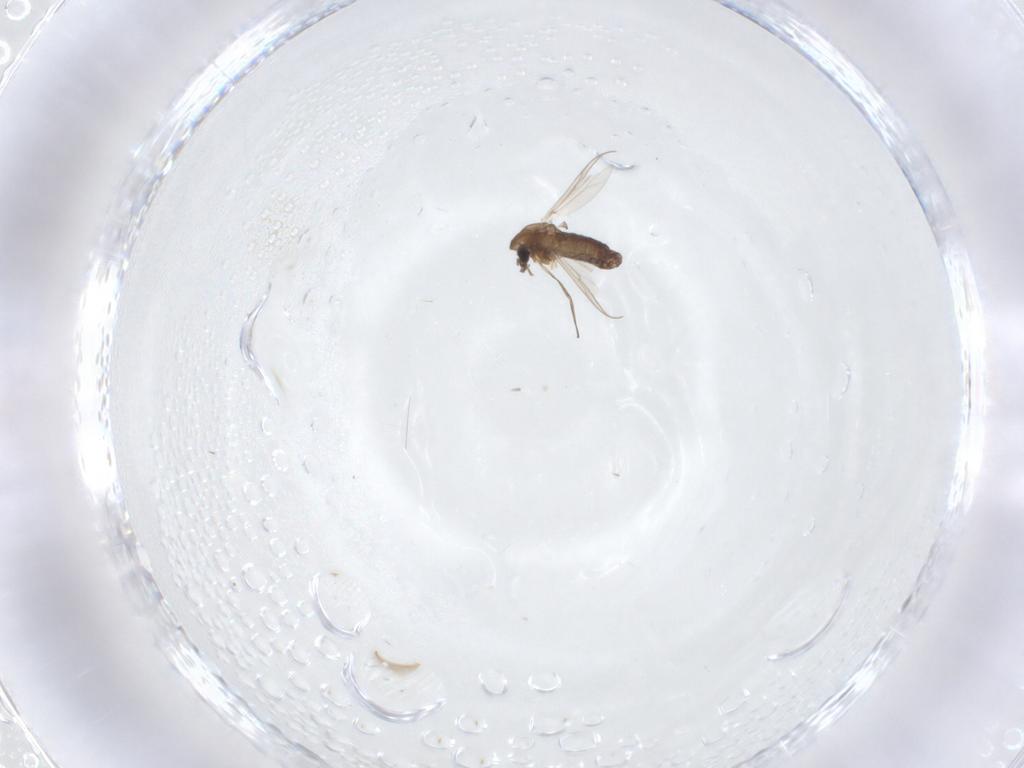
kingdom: Animalia
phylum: Arthropoda
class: Insecta
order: Diptera
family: Chironomidae
